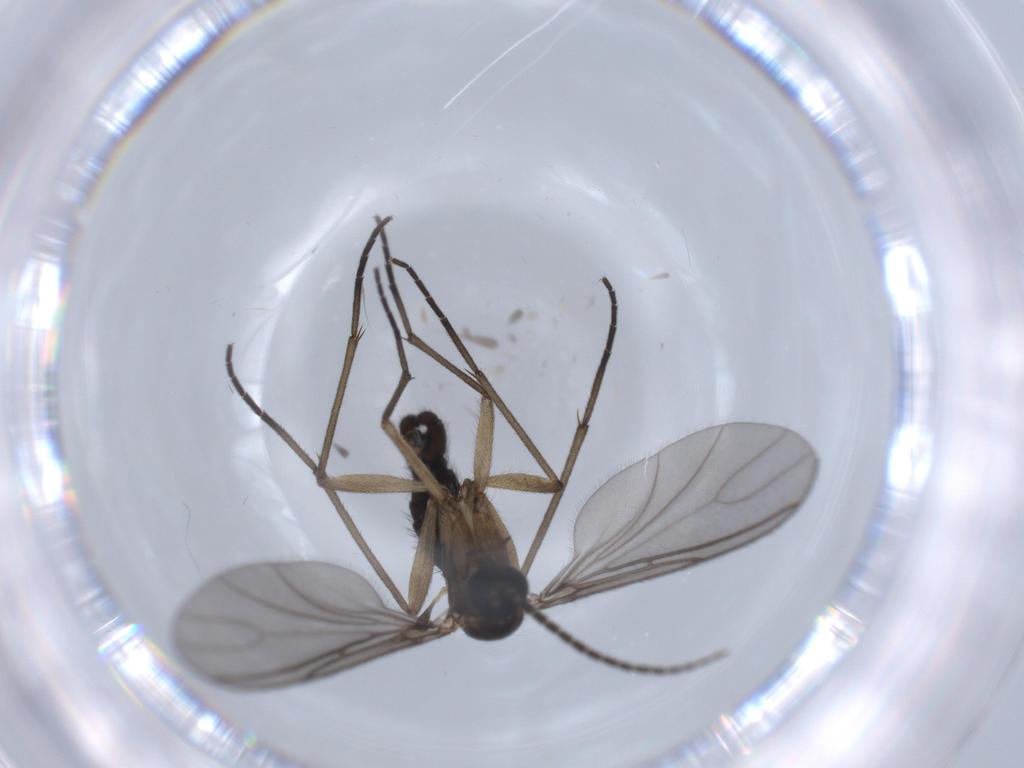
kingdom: Animalia
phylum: Arthropoda
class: Insecta
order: Diptera
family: Sciaridae
